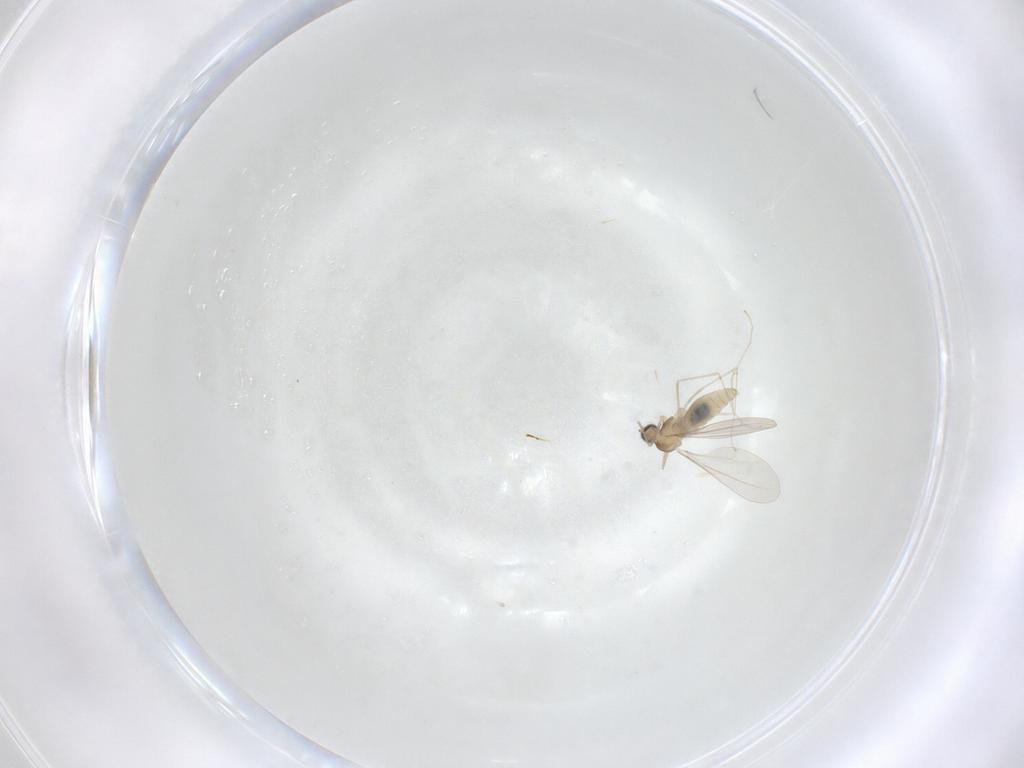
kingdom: Animalia
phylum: Arthropoda
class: Insecta
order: Diptera
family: Cecidomyiidae
